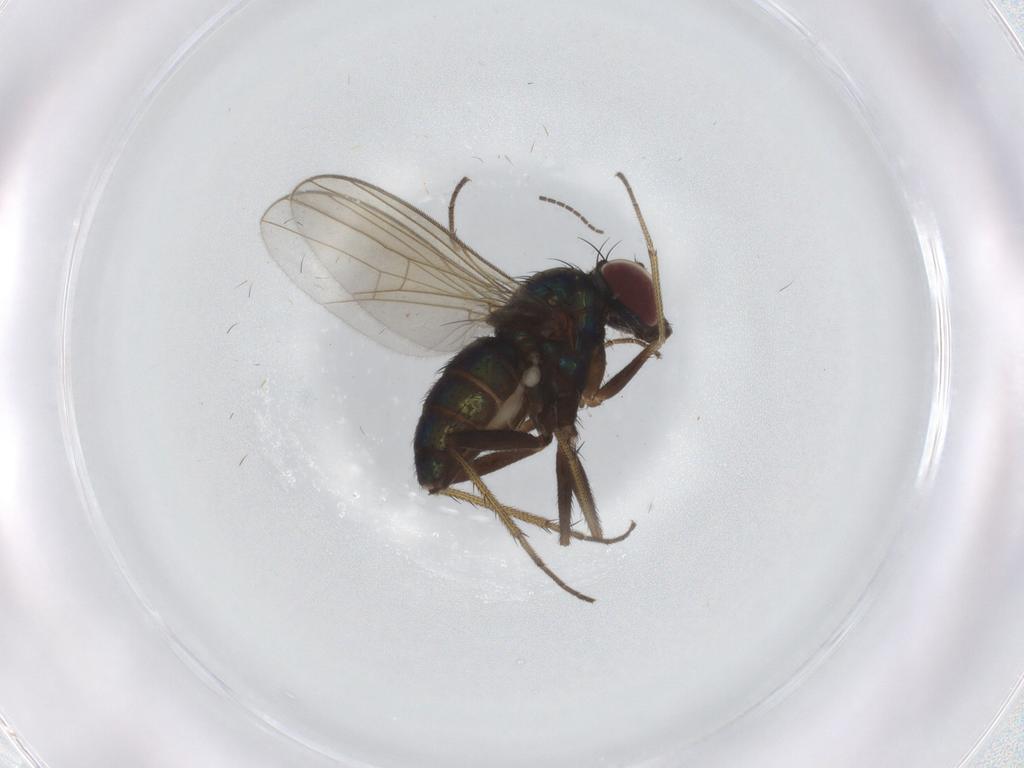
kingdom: Animalia
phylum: Arthropoda
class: Insecta
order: Diptera
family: Dolichopodidae
